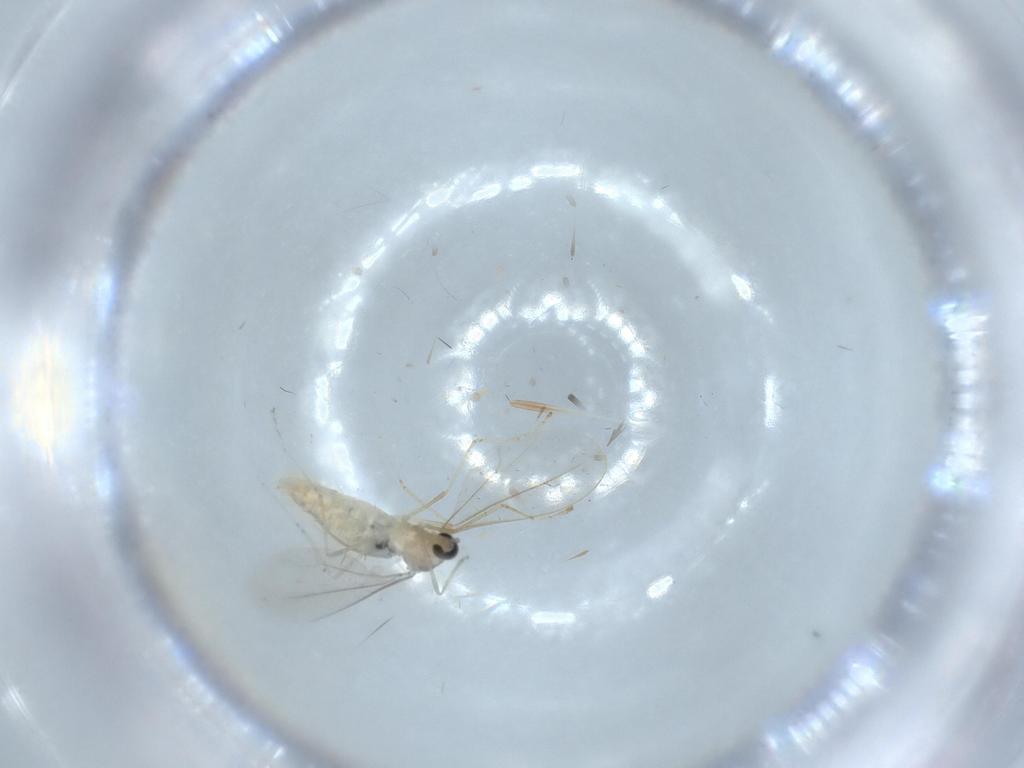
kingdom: Animalia
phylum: Arthropoda
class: Insecta
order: Diptera
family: Cecidomyiidae
